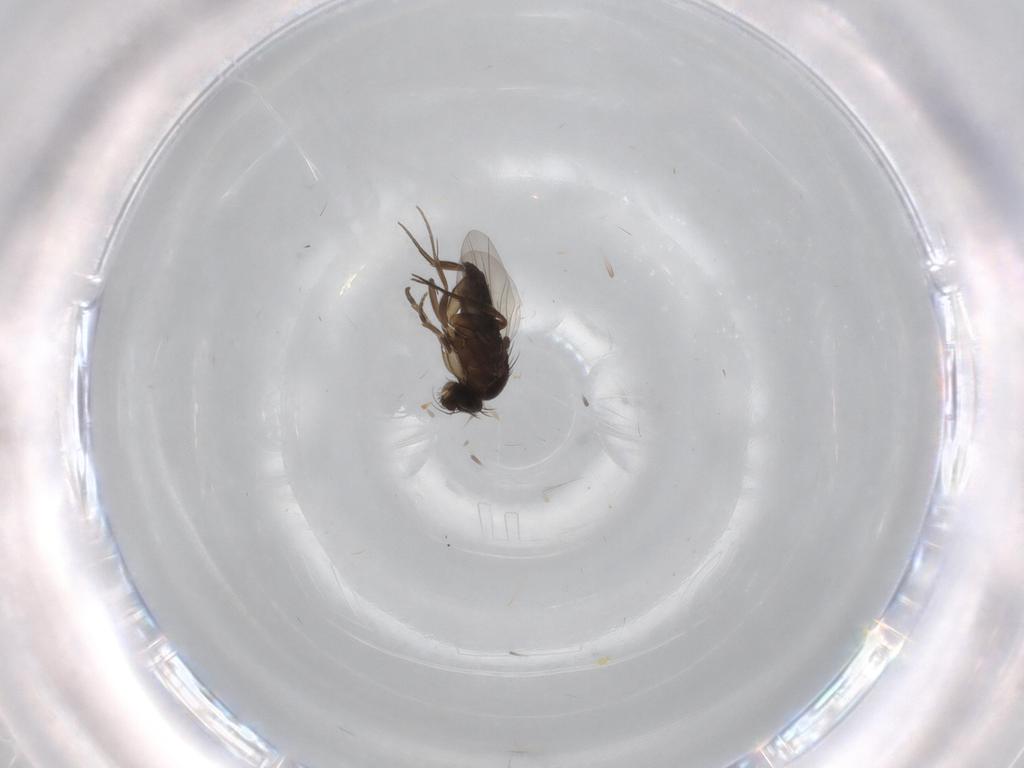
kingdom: Animalia
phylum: Arthropoda
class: Insecta
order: Diptera
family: Phoridae
